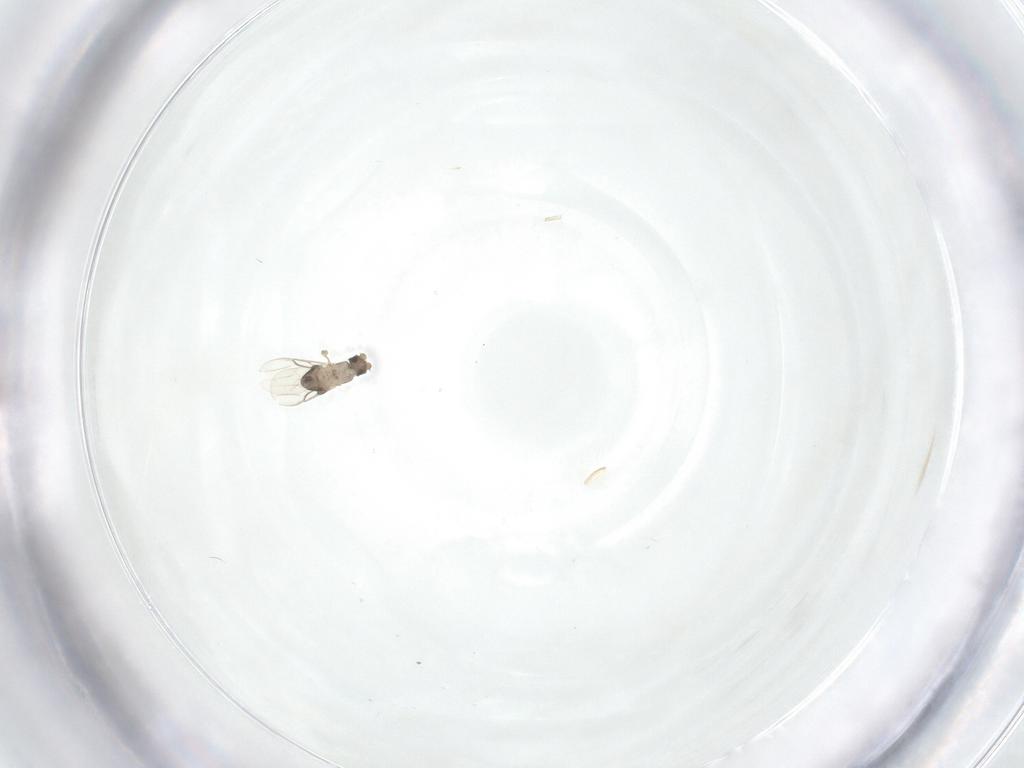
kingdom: Animalia
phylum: Arthropoda
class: Insecta
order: Diptera
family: Phoridae
